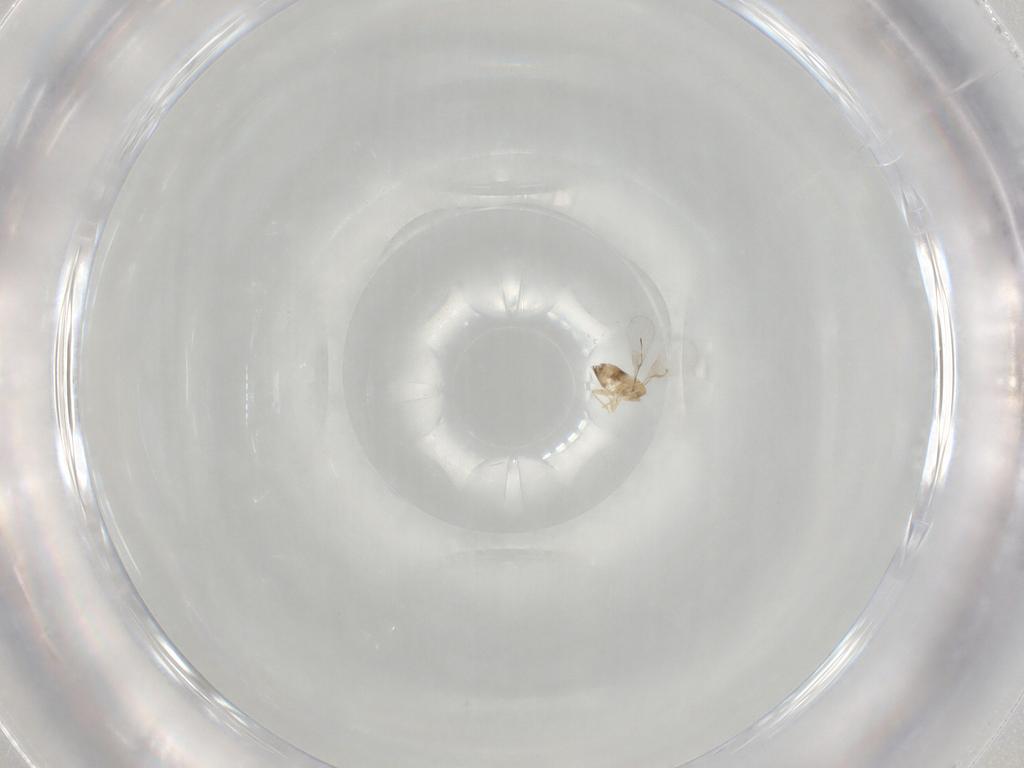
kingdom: Animalia
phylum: Arthropoda
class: Insecta
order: Hymenoptera
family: Trichogrammatidae
